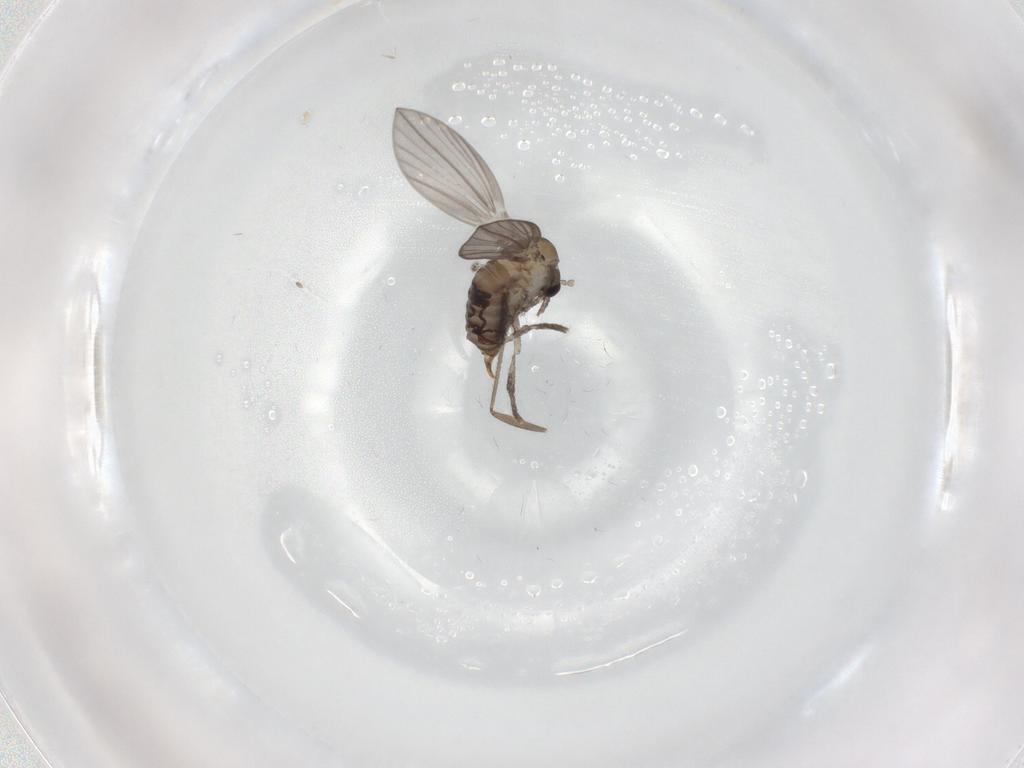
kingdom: Animalia
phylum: Arthropoda
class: Insecta
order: Diptera
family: Psychodidae
